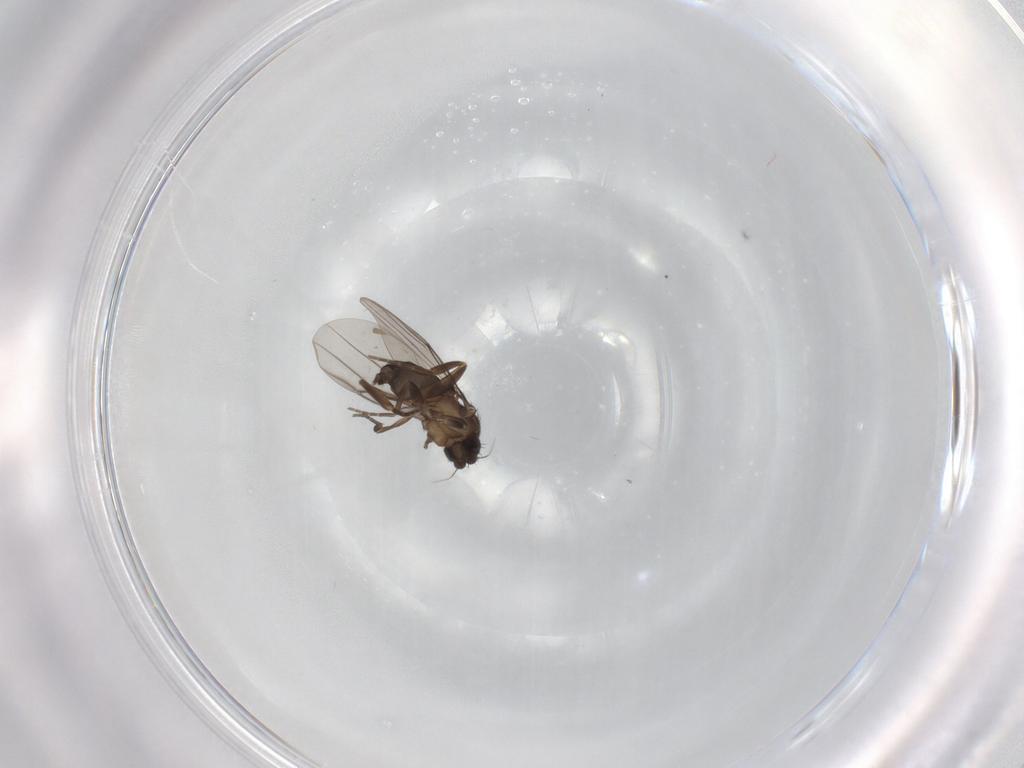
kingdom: Animalia
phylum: Arthropoda
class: Insecta
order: Diptera
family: Phoridae
